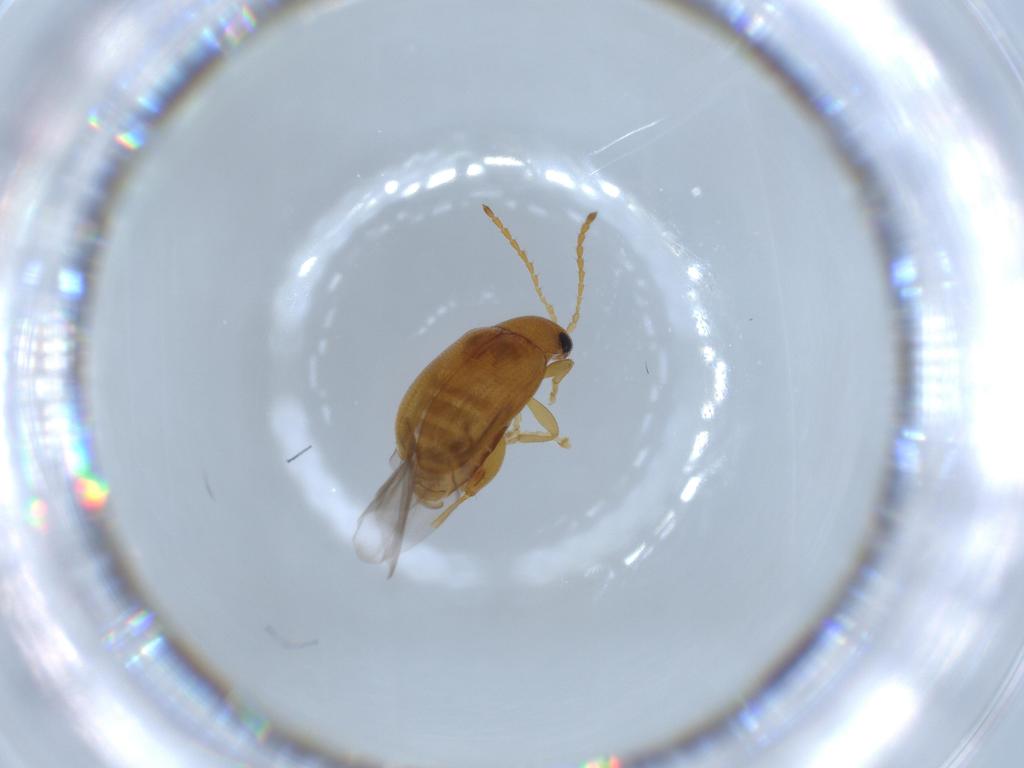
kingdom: Animalia
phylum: Arthropoda
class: Insecta
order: Coleoptera
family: Chrysomelidae
